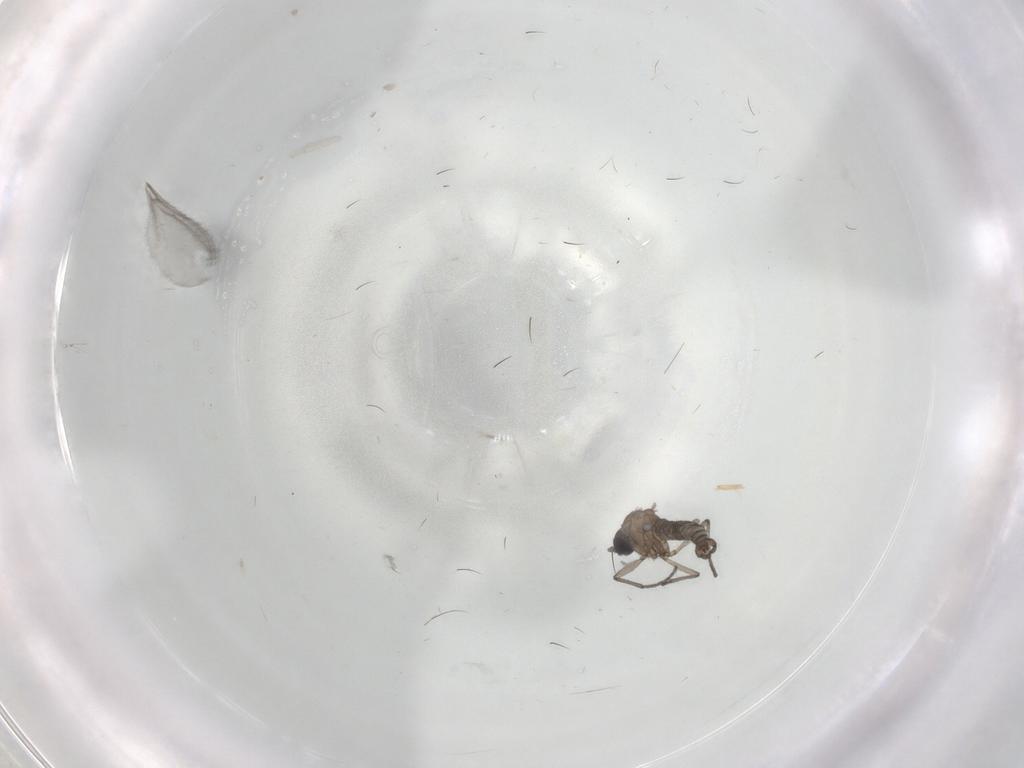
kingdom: Animalia
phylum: Arthropoda
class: Insecta
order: Diptera
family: Sciaridae
